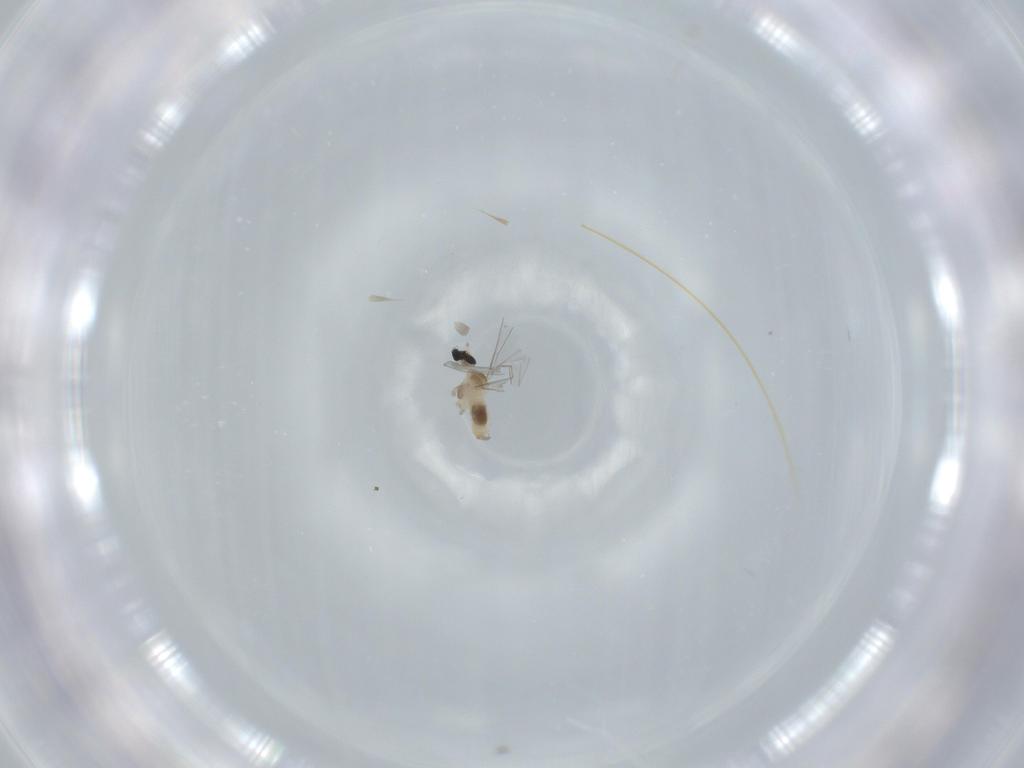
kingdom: Animalia
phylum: Arthropoda
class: Insecta
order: Diptera
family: Cecidomyiidae
